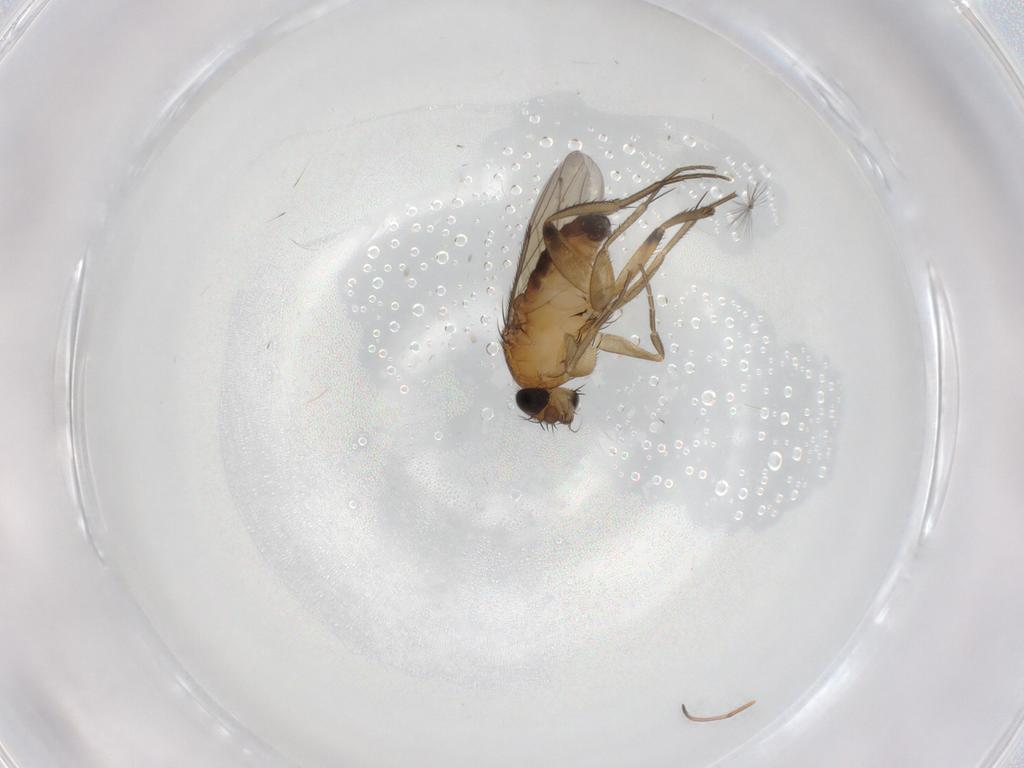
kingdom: Animalia
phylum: Arthropoda
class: Insecta
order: Diptera
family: Phoridae
